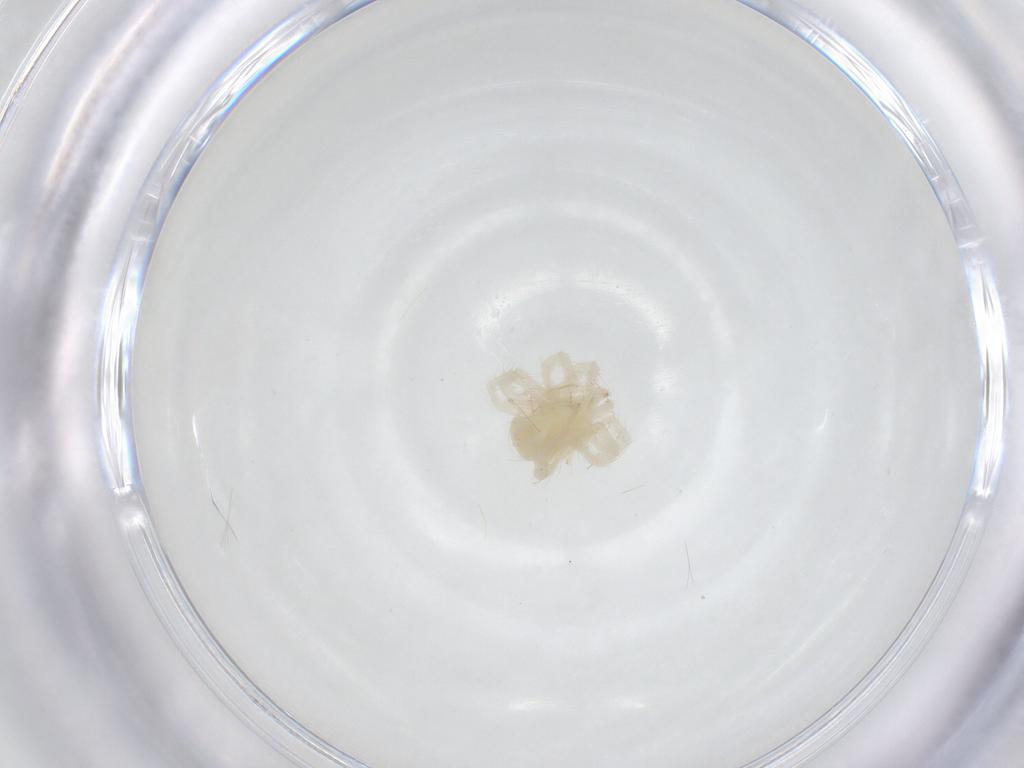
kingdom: Animalia
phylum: Arthropoda
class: Arachnida
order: Trombidiformes
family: Anystidae
